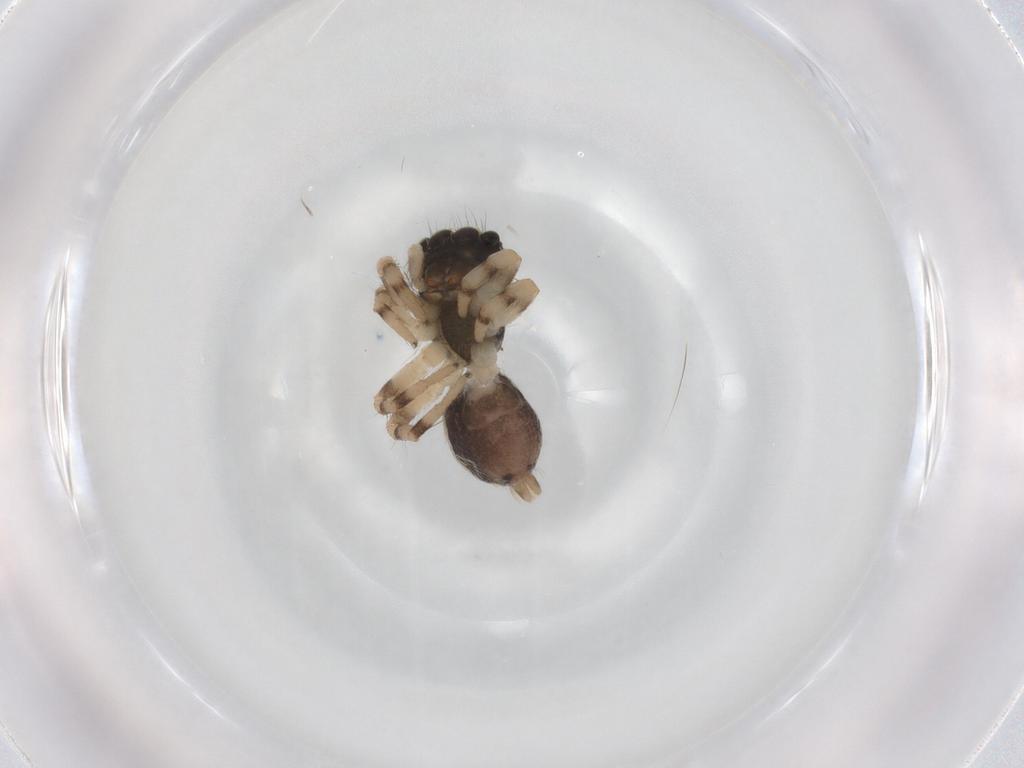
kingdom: Animalia
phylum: Arthropoda
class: Arachnida
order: Araneae
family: Salticidae
